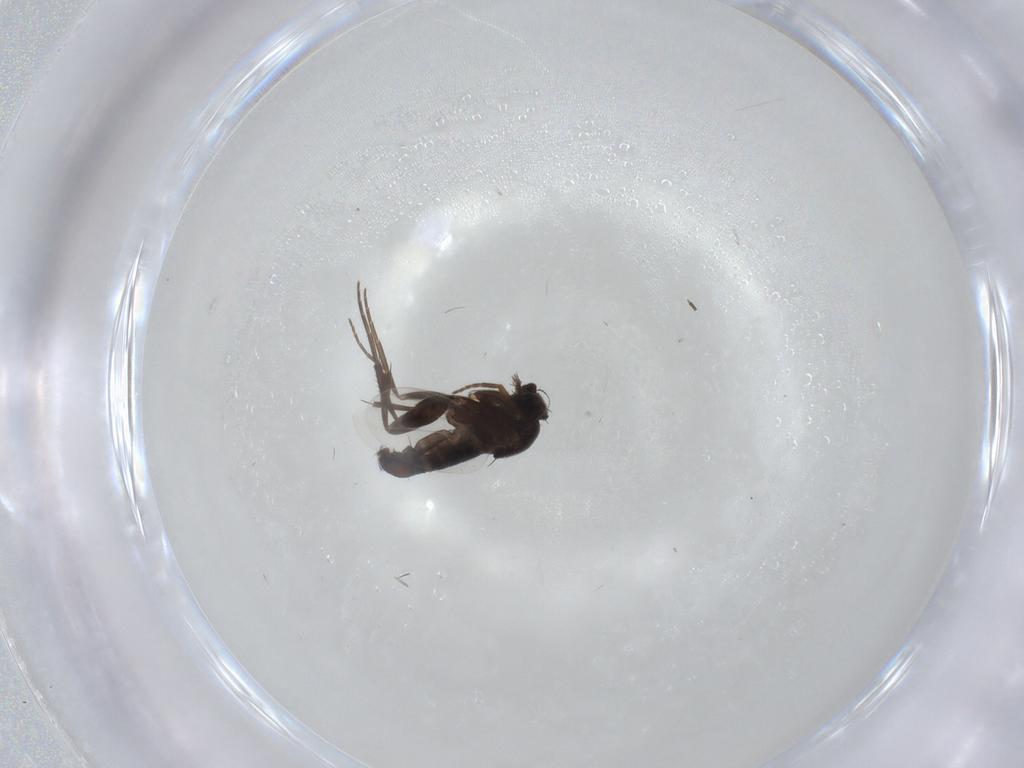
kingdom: Animalia
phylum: Arthropoda
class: Insecta
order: Diptera
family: Phoridae
